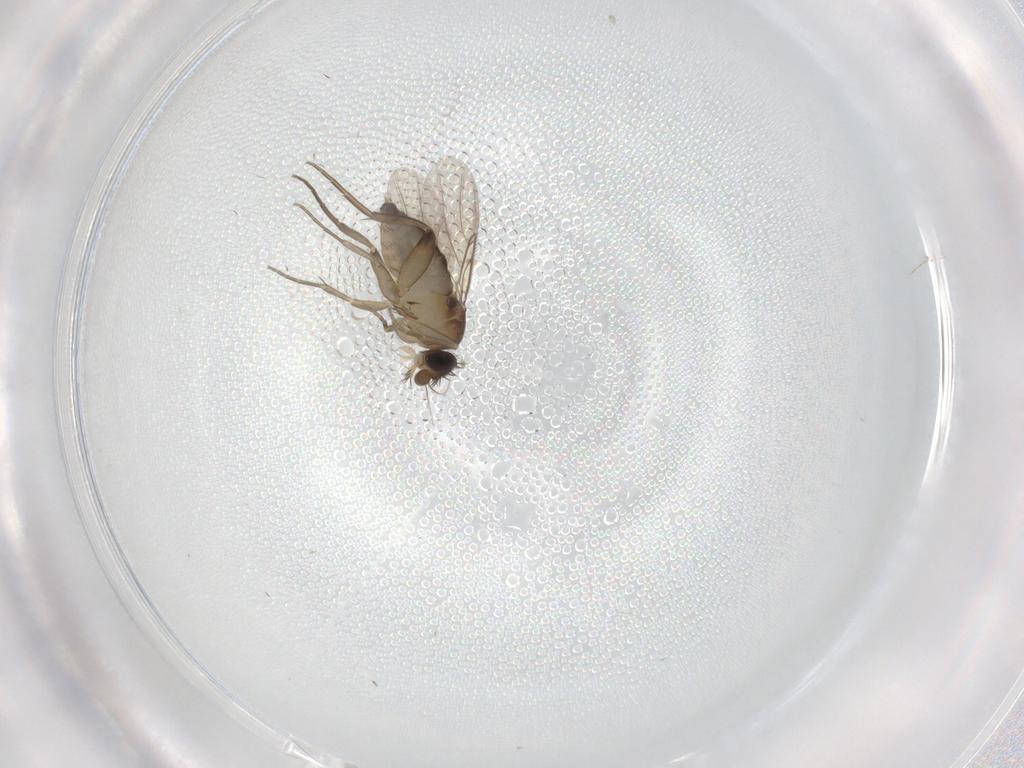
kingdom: Animalia
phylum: Arthropoda
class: Insecta
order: Diptera
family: Phoridae
